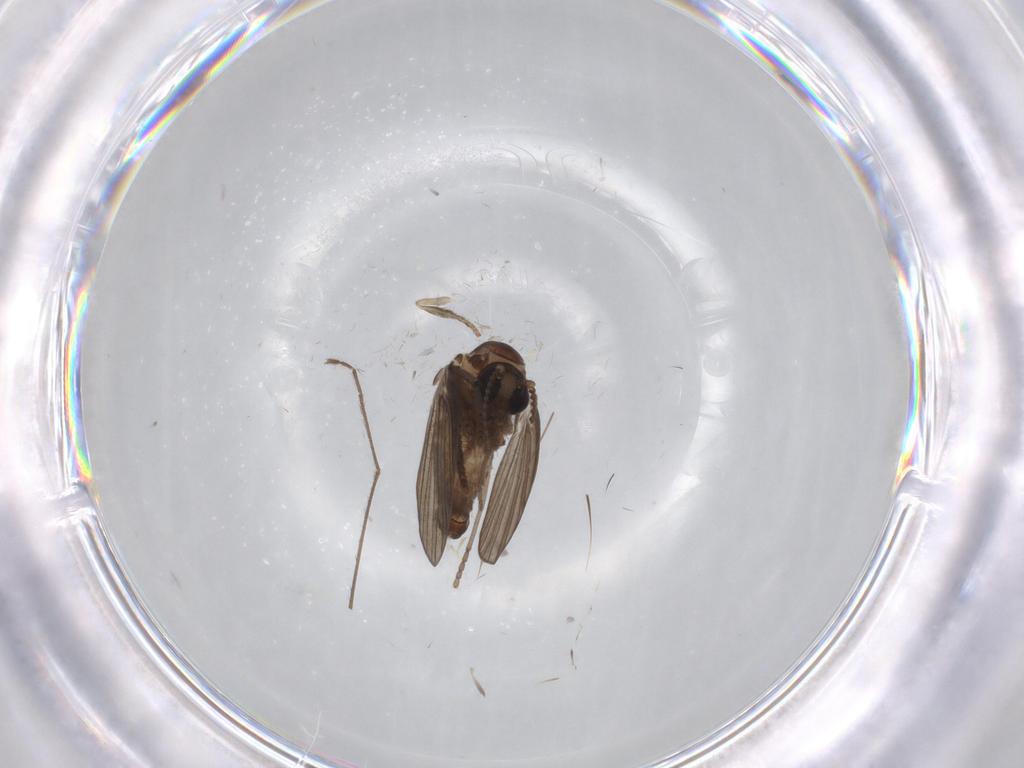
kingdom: Animalia
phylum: Arthropoda
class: Insecta
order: Diptera
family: Psychodidae
